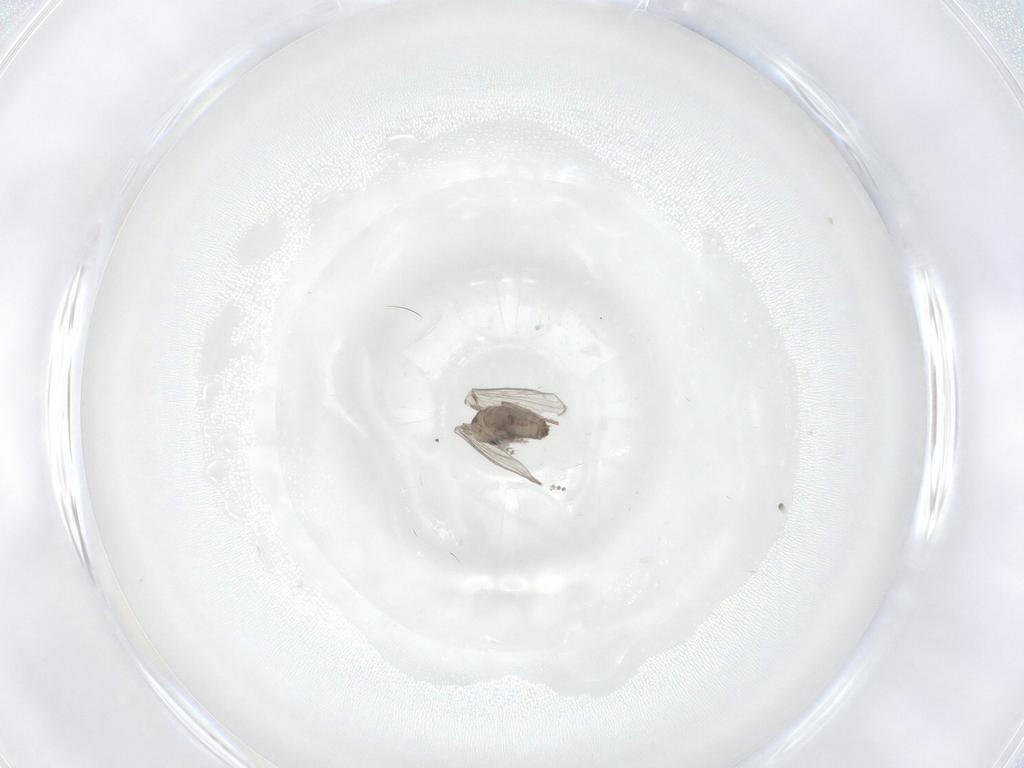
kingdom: Animalia
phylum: Arthropoda
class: Insecta
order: Diptera
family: Psychodidae
